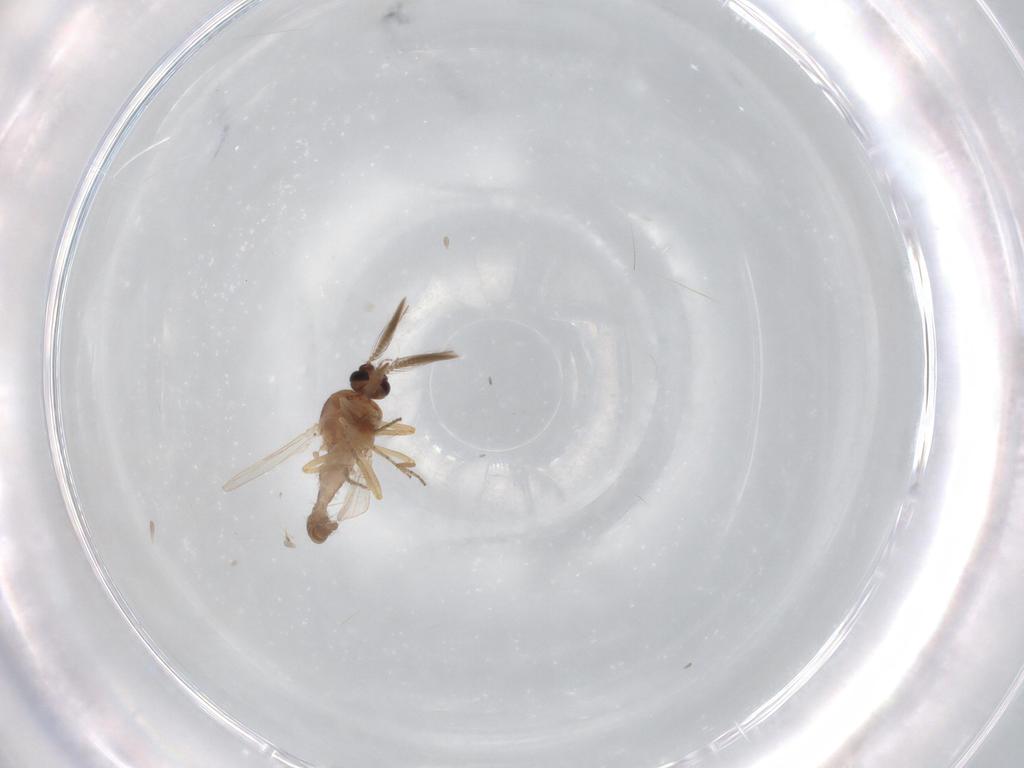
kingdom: Animalia
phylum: Arthropoda
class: Insecta
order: Diptera
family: Ceratopogonidae
